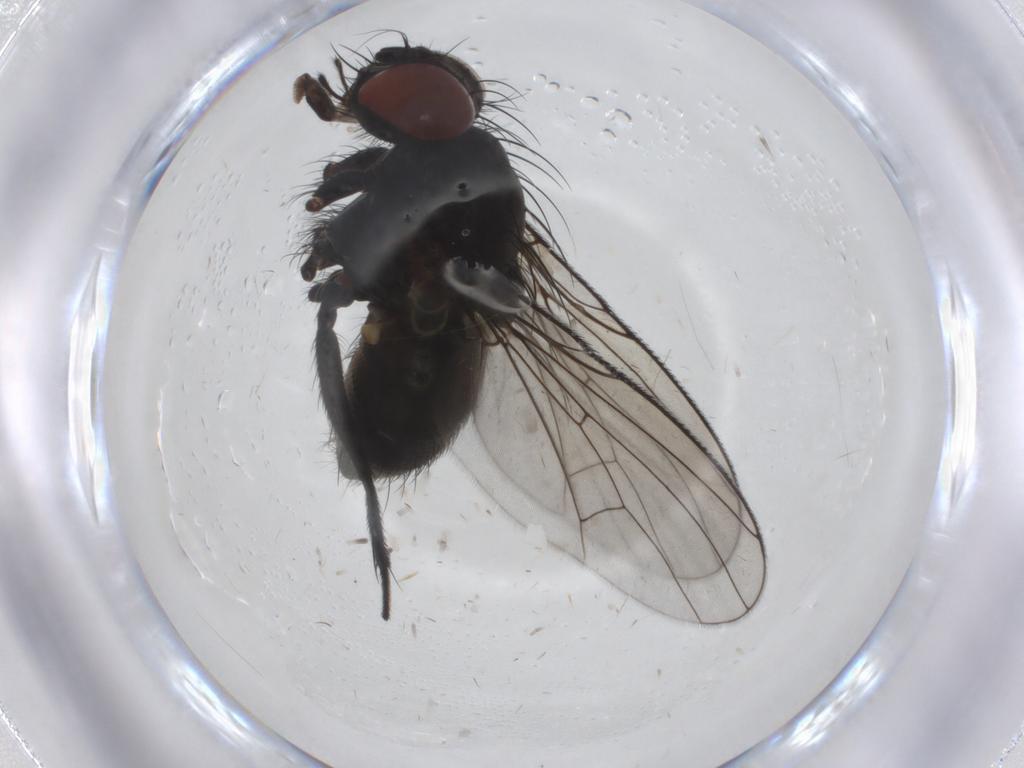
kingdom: Animalia
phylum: Arthropoda
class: Insecta
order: Diptera
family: Muscidae
